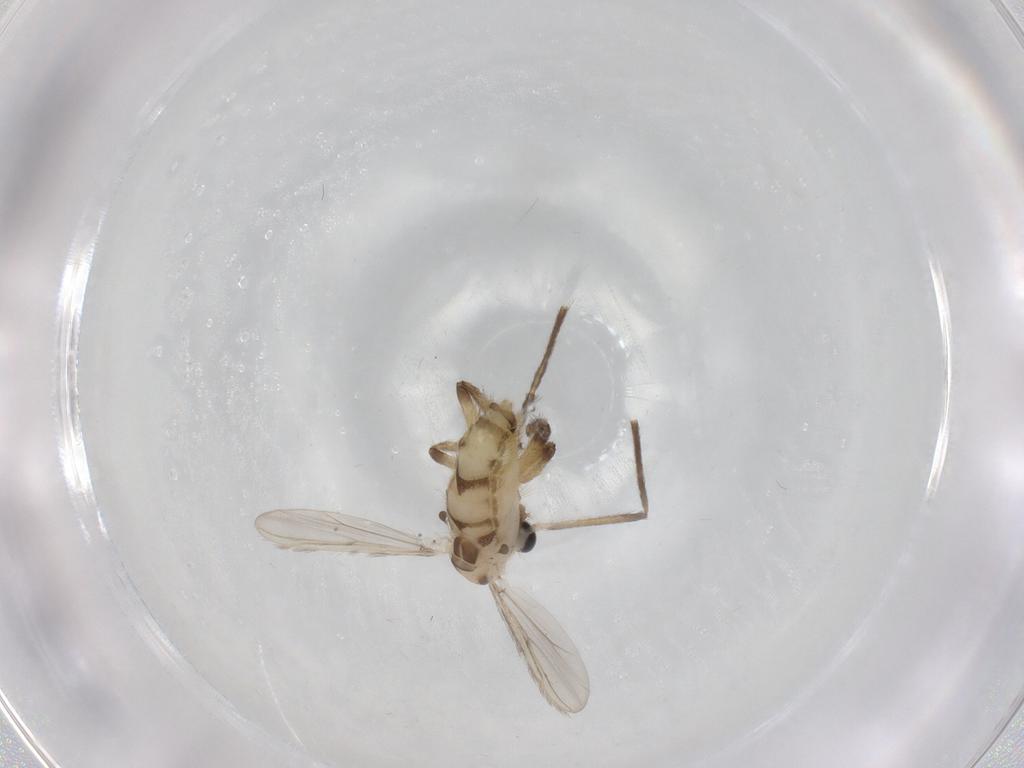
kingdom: Animalia
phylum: Arthropoda
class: Insecta
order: Diptera
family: Chironomidae
